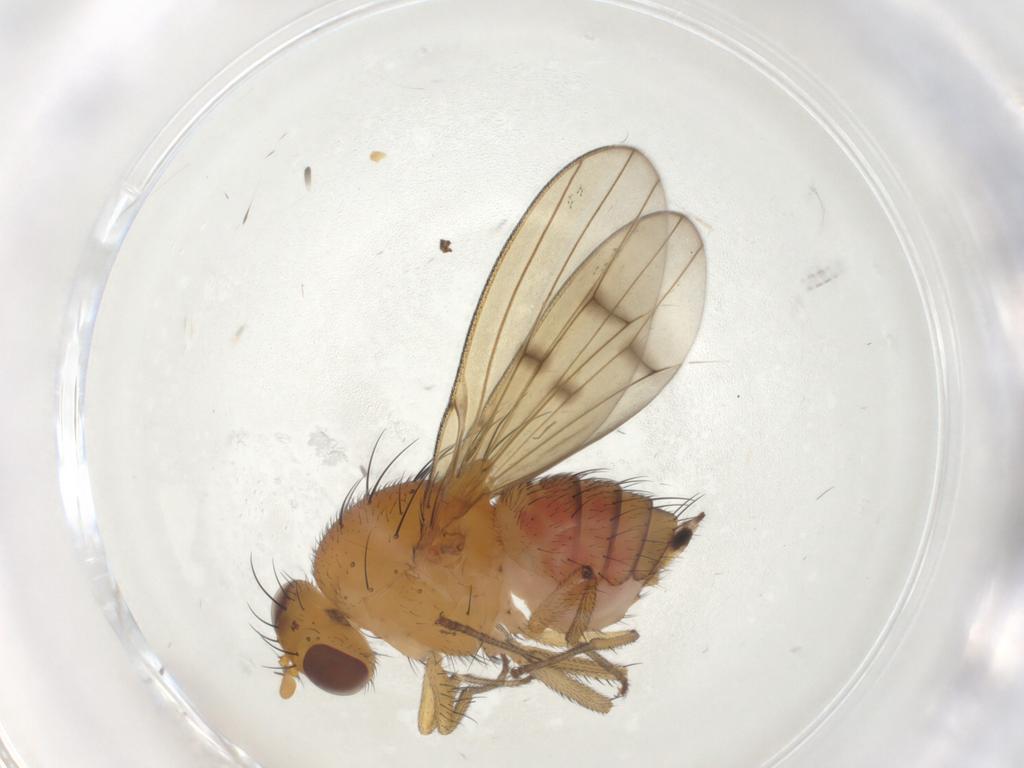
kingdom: Animalia
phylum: Arthropoda
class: Insecta
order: Diptera
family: Lauxaniidae
